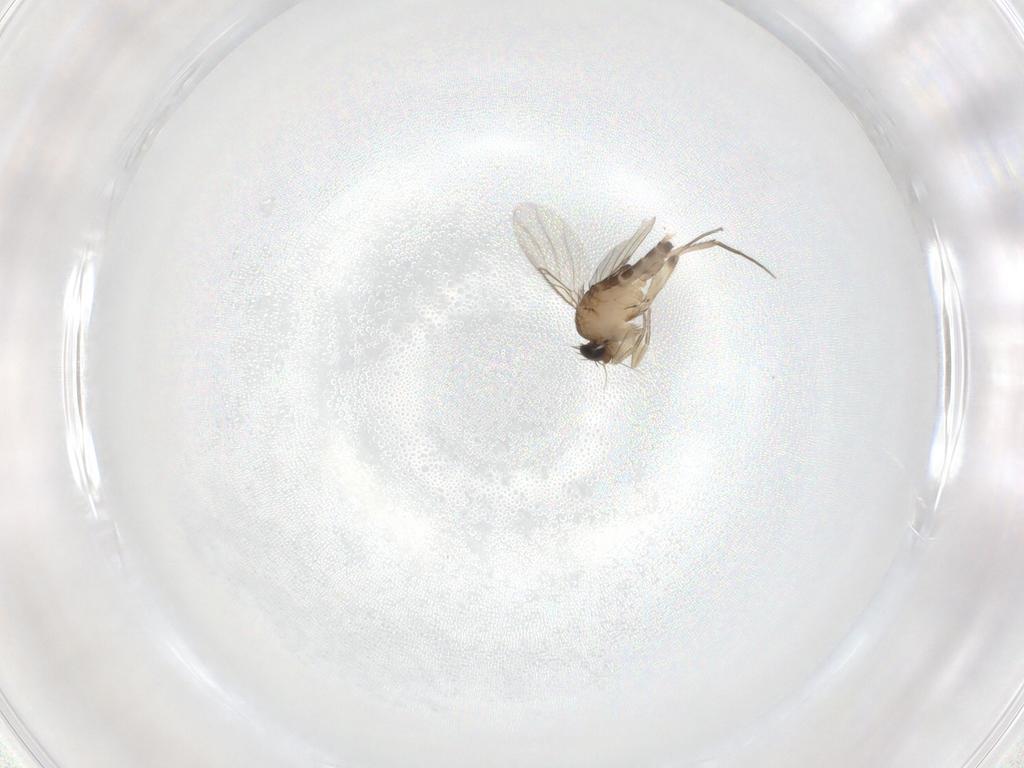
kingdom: Animalia
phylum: Arthropoda
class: Insecta
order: Diptera
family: Phoridae
